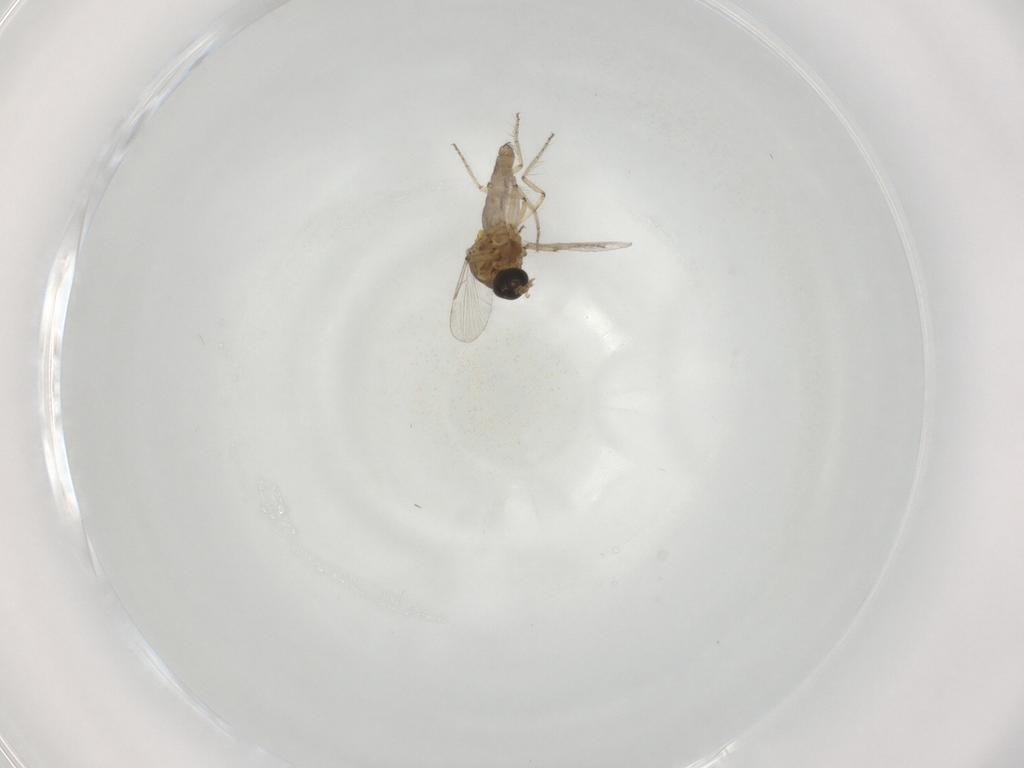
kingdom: Animalia
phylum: Arthropoda
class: Insecta
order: Diptera
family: Ceratopogonidae
